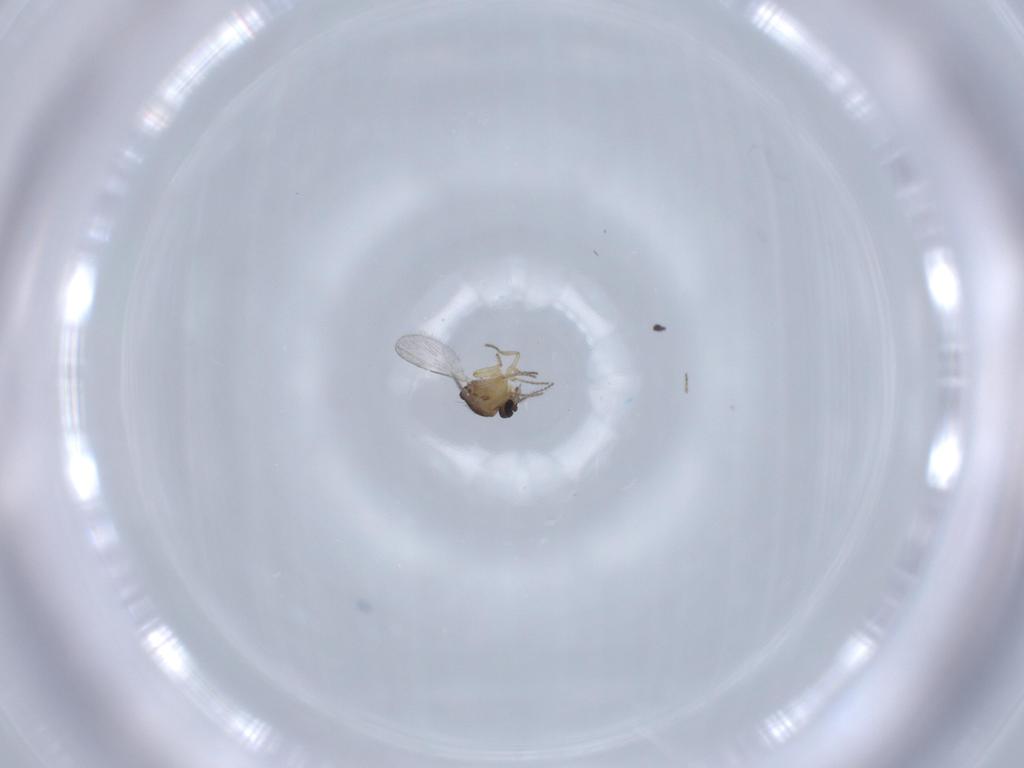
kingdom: Animalia
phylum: Arthropoda
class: Insecta
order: Diptera
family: Ceratopogonidae
